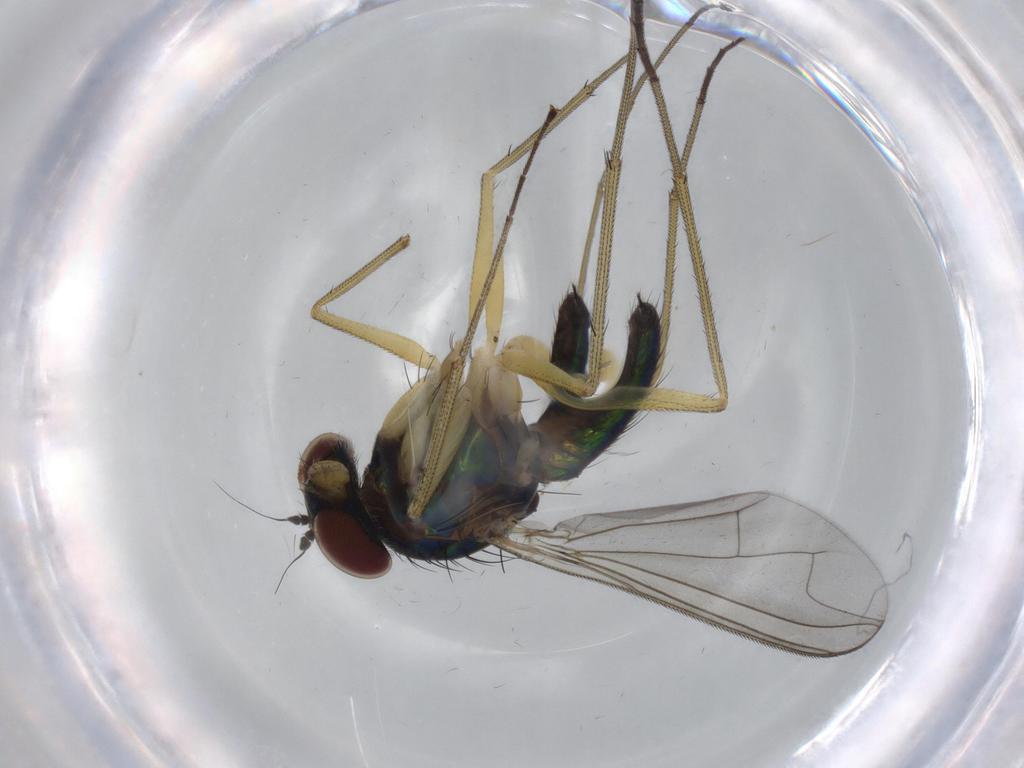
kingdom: Animalia
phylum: Arthropoda
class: Insecta
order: Diptera
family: Dolichopodidae
